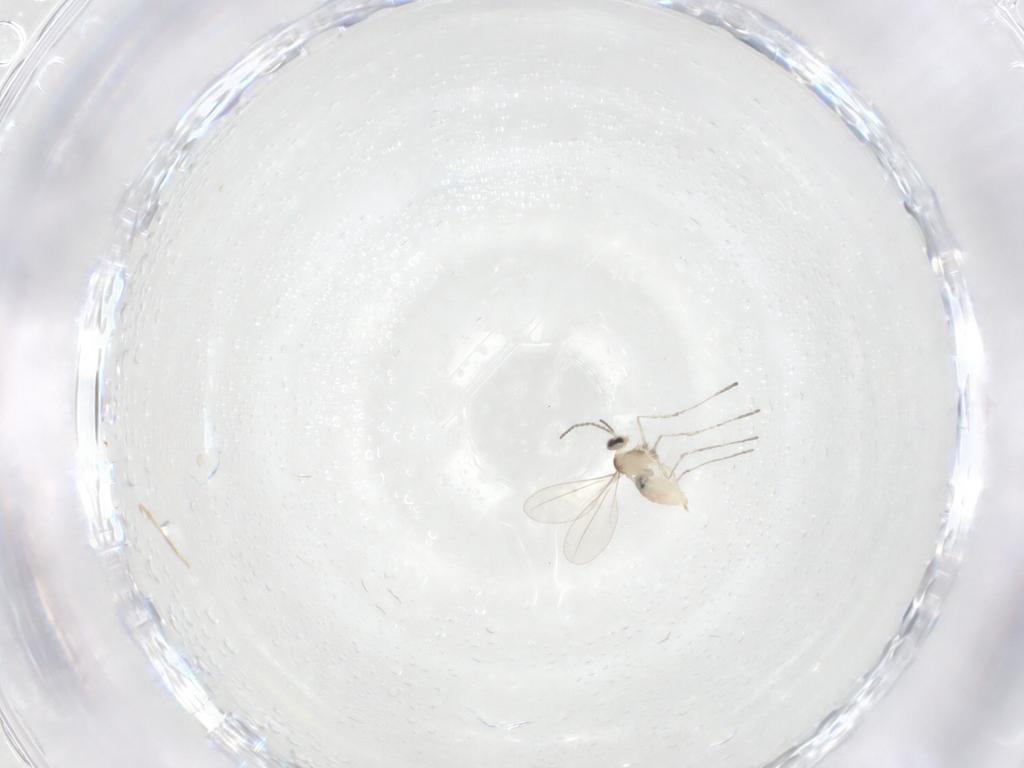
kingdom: Animalia
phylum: Arthropoda
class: Insecta
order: Diptera
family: Cecidomyiidae
